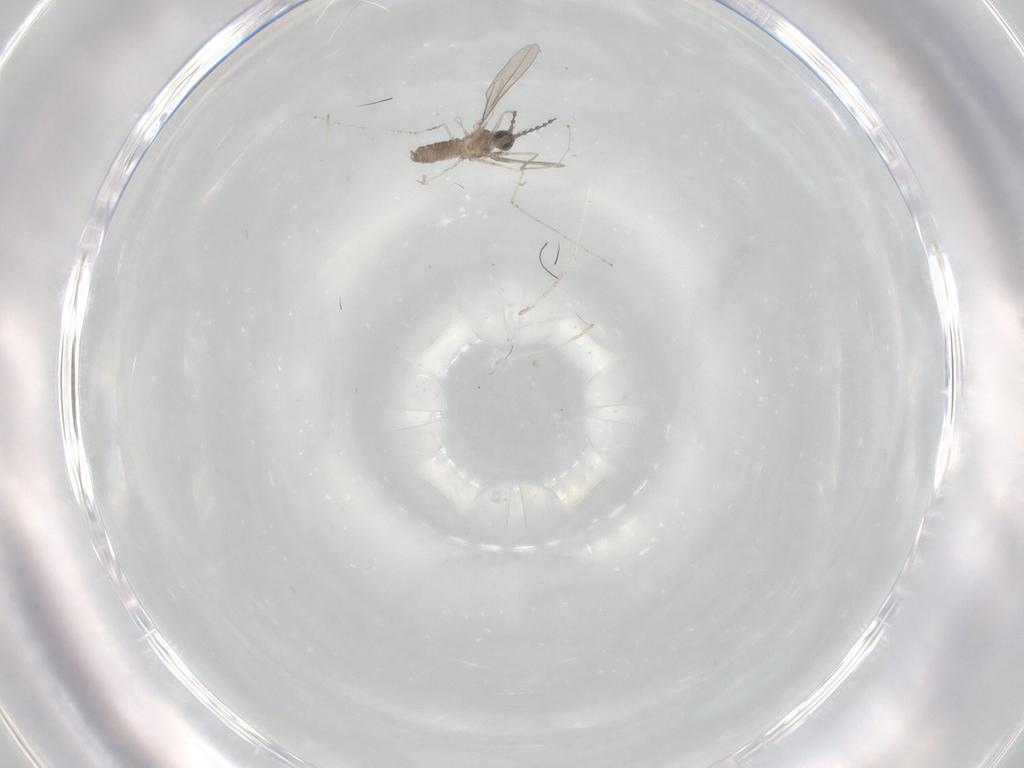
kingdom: Animalia
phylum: Arthropoda
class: Insecta
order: Diptera
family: Cecidomyiidae
